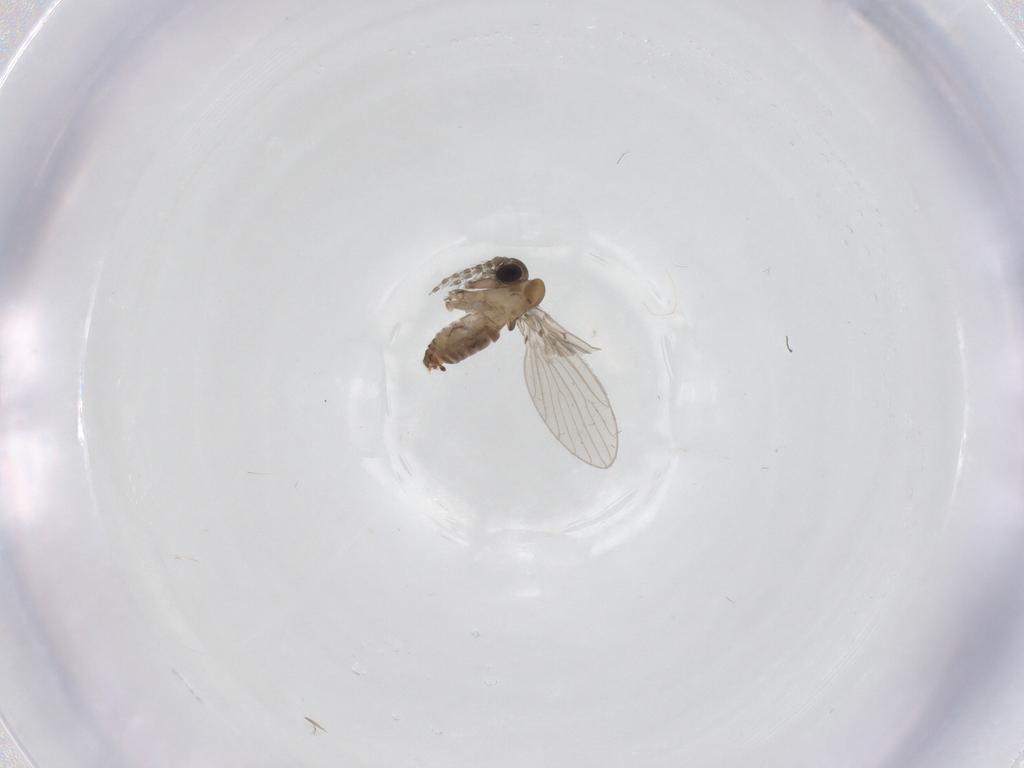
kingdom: Animalia
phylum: Arthropoda
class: Insecta
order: Diptera
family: Psychodidae
